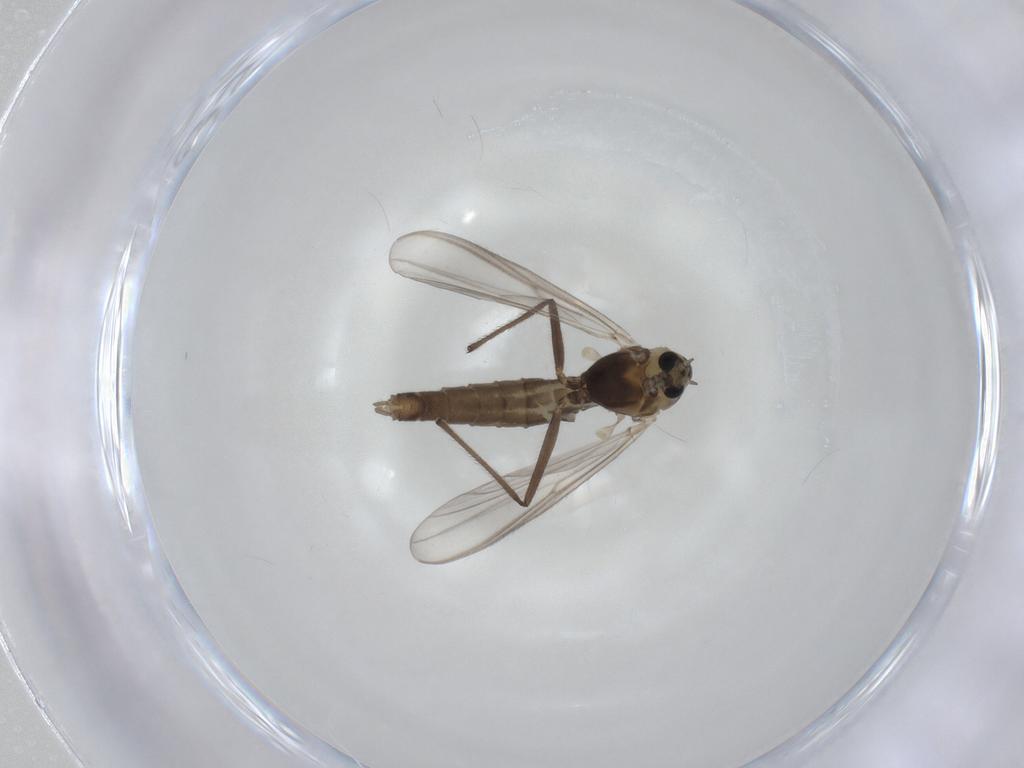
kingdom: Animalia
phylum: Arthropoda
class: Insecta
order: Diptera
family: Chironomidae
